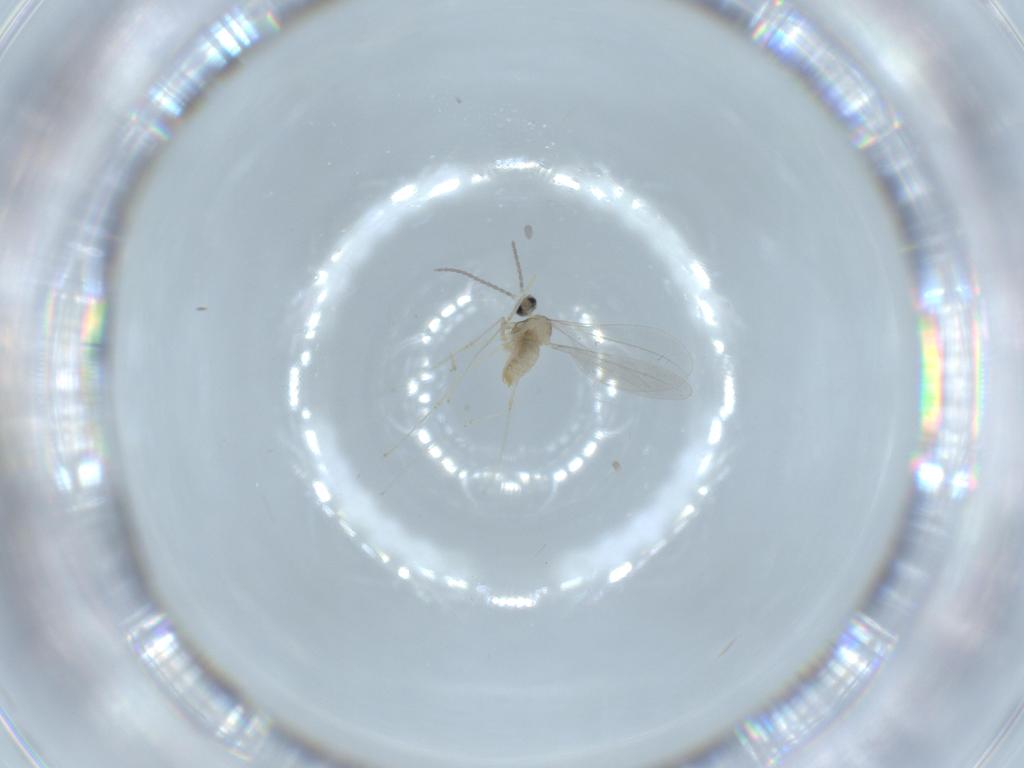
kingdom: Animalia
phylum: Arthropoda
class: Insecta
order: Diptera
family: Sciaridae
